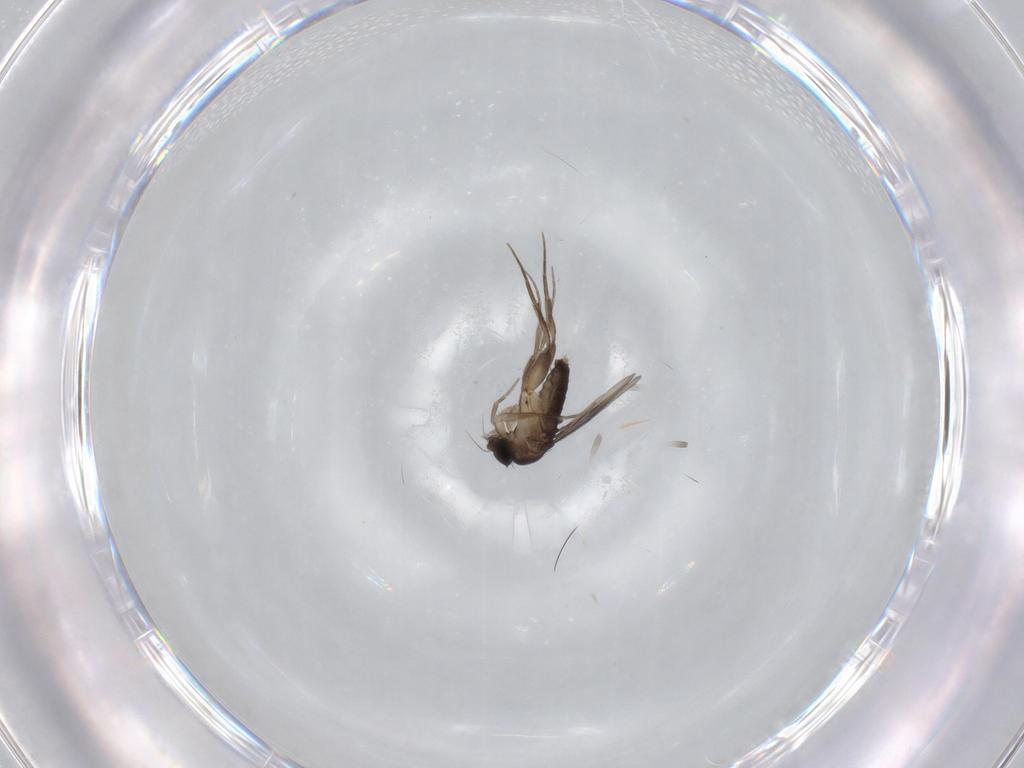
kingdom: Animalia
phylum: Arthropoda
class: Insecta
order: Diptera
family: Phoridae
